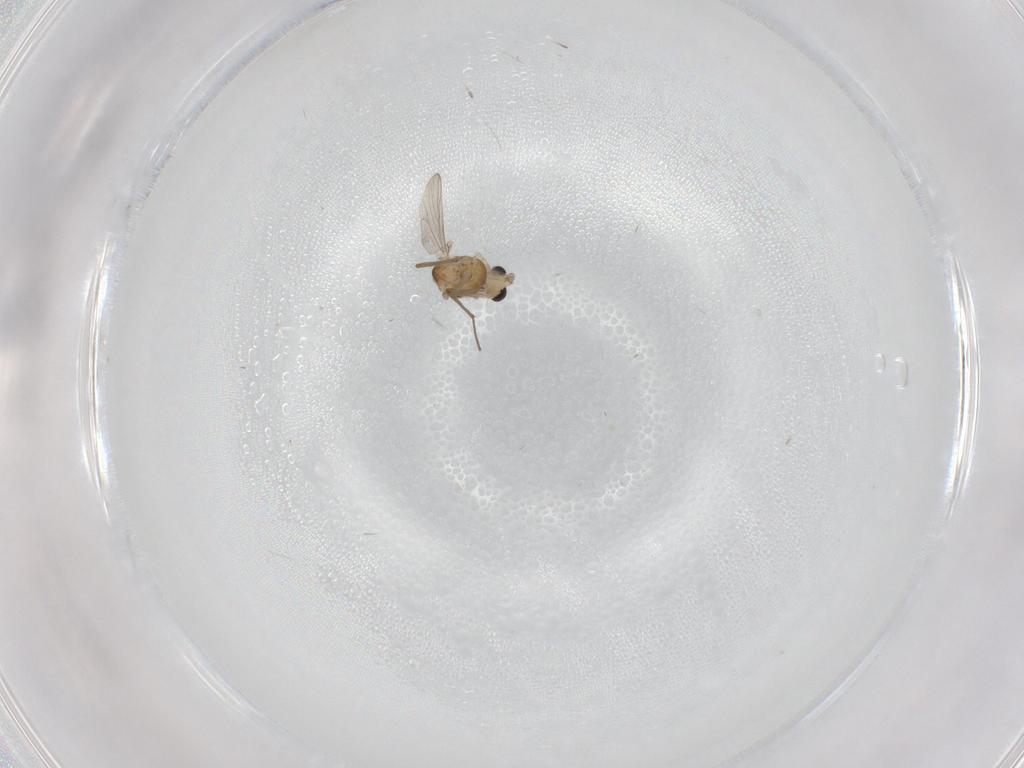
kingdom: Animalia
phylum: Arthropoda
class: Insecta
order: Diptera
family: Chironomidae
